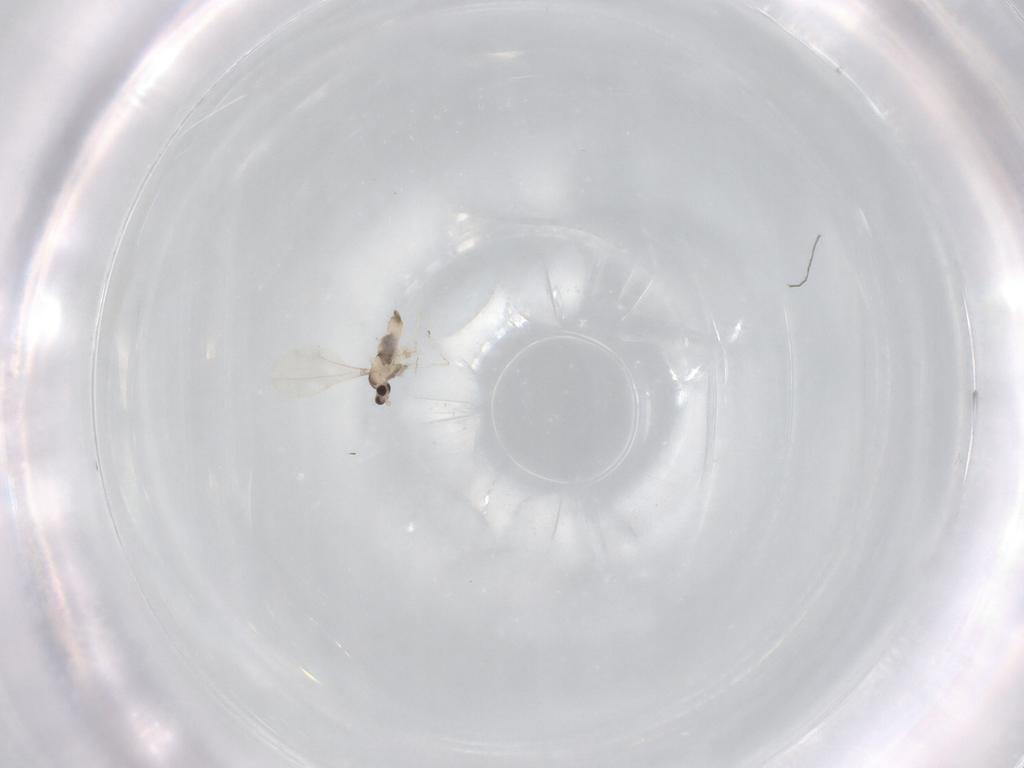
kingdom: Animalia
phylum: Arthropoda
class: Insecta
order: Diptera
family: Cecidomyiidae
